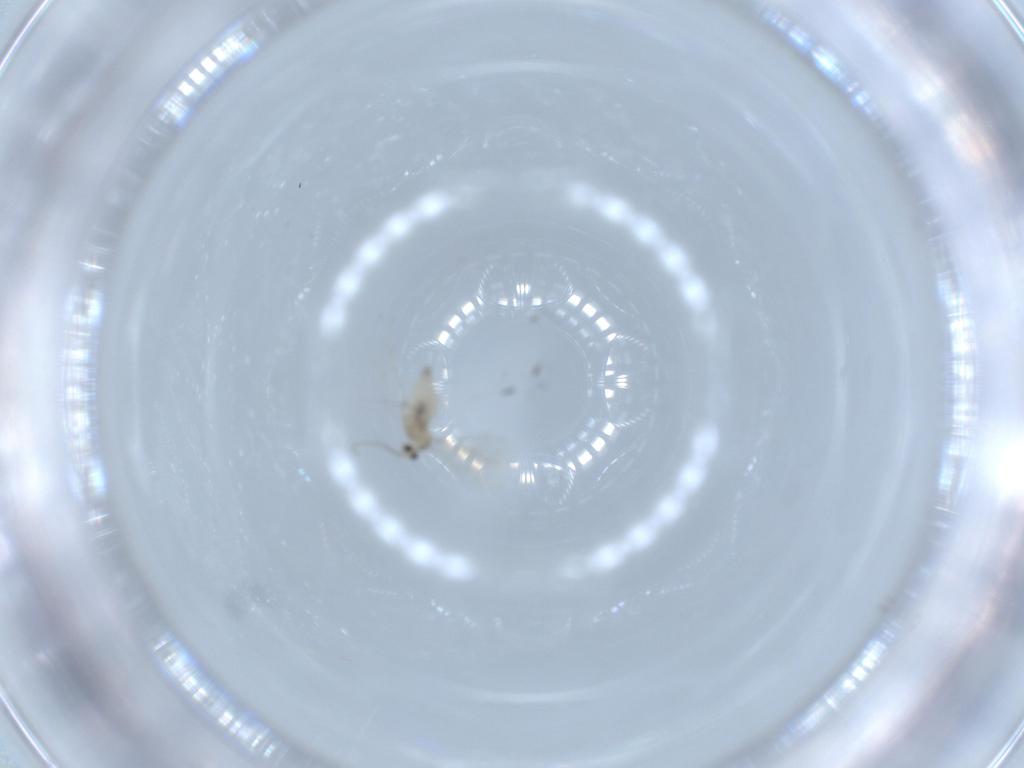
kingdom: Animalia
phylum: Arthropoda
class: Insecta
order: Diptera
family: Cecidomyiidae
